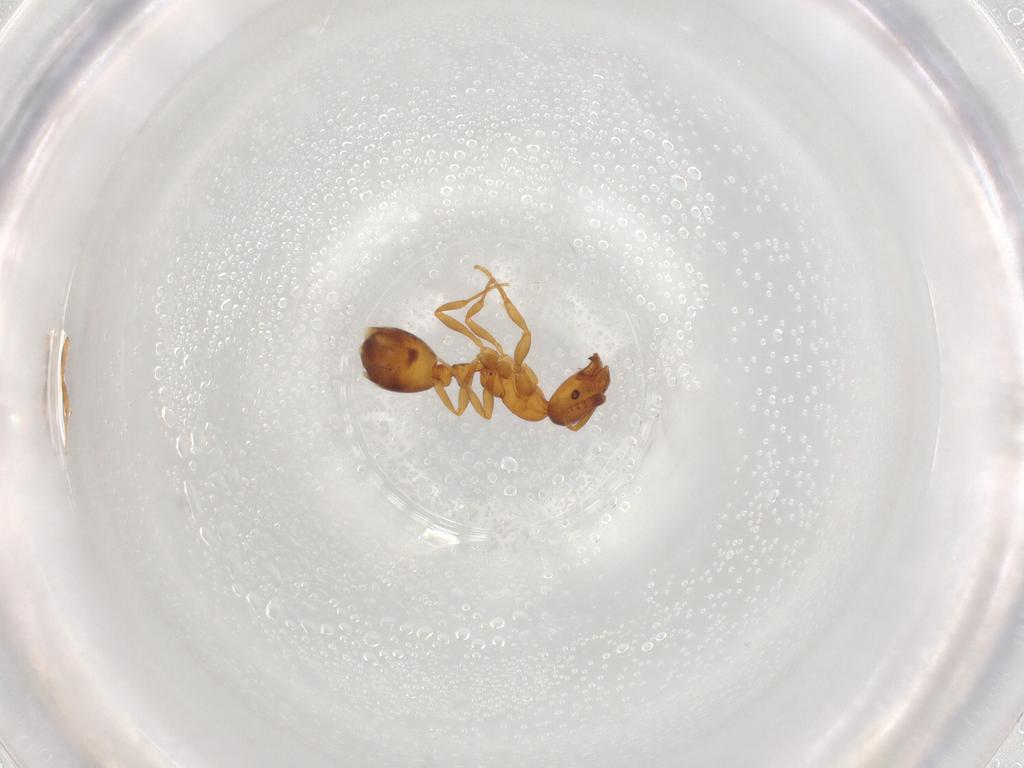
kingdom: Animalia
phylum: Arthropoda
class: Insecta
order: Hymenoptera
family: Formicidae
